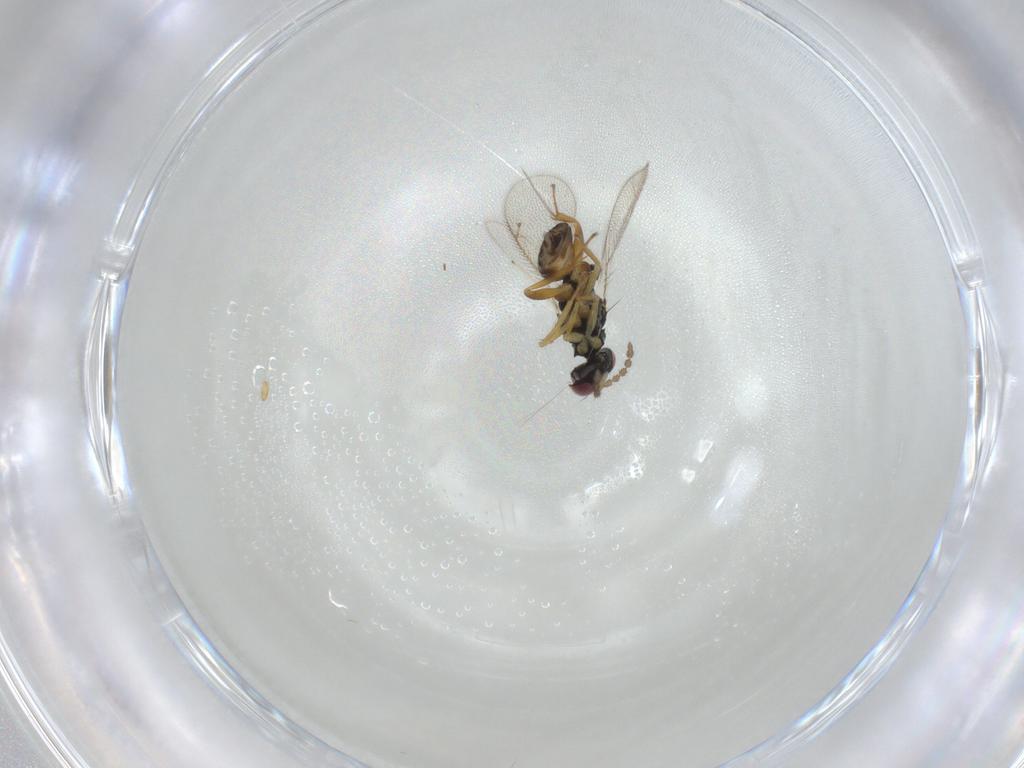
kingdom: Animalia
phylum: Arthropoda
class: Insecta
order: Hymenoptera
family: Eulophidae
